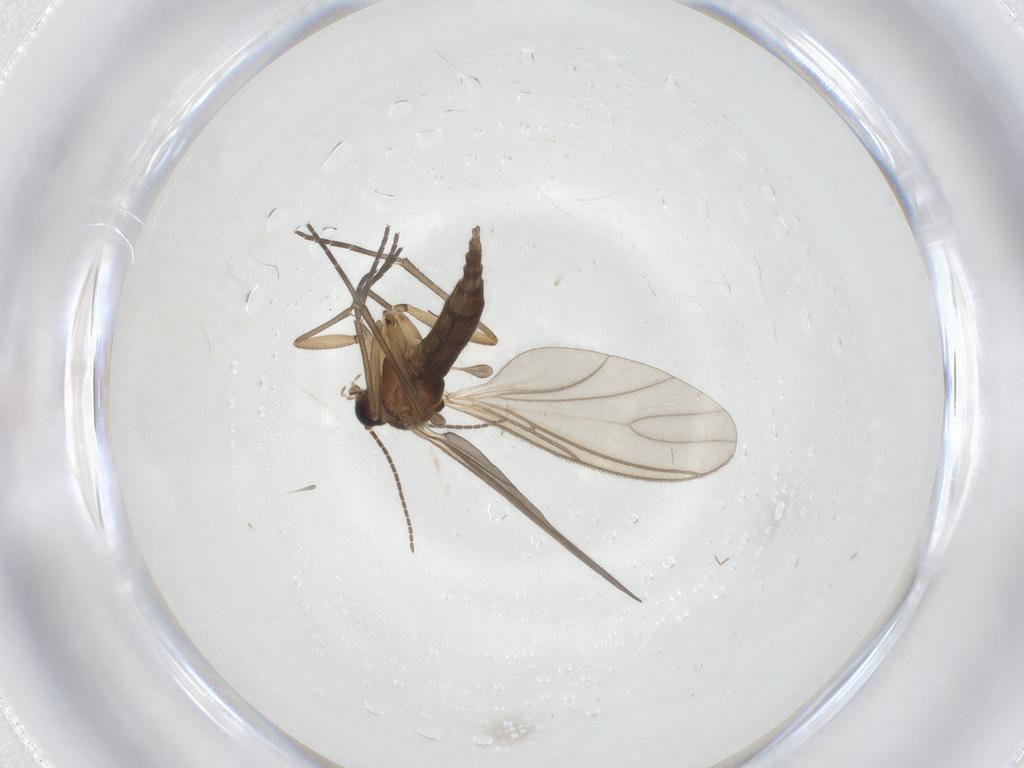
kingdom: Animalia
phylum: Arthropoda
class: Insecta
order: Diptera
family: Sciaridae
